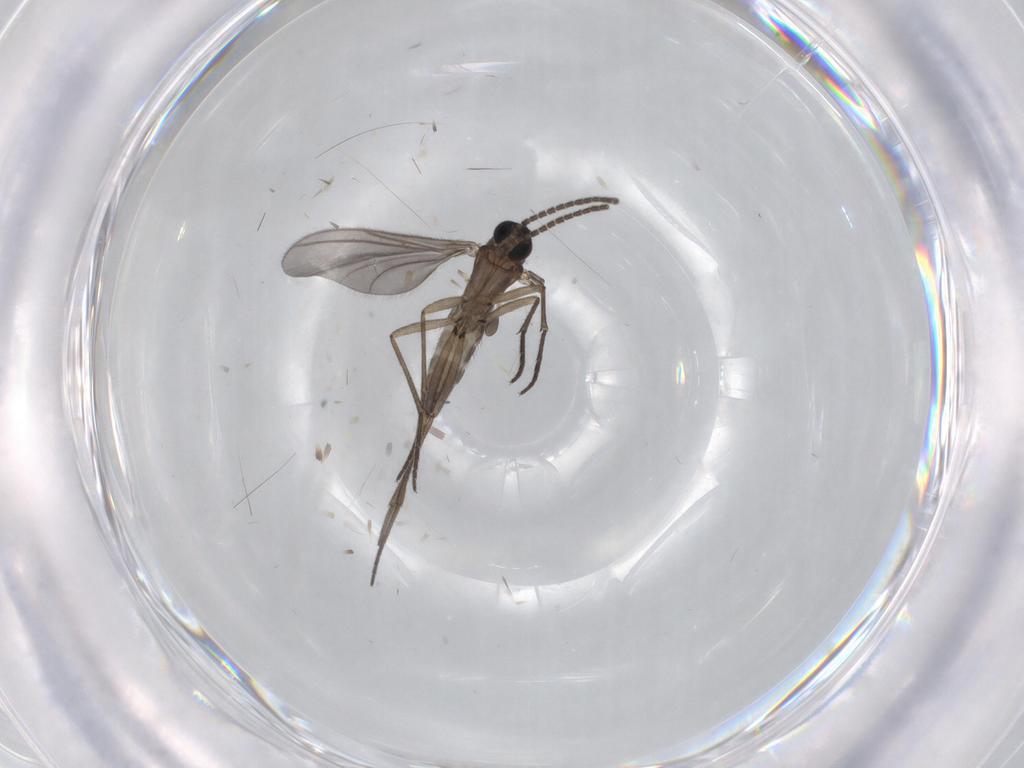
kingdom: Animalia
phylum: Arthropoda
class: Insecta
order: Diptera
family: Sciaridae
